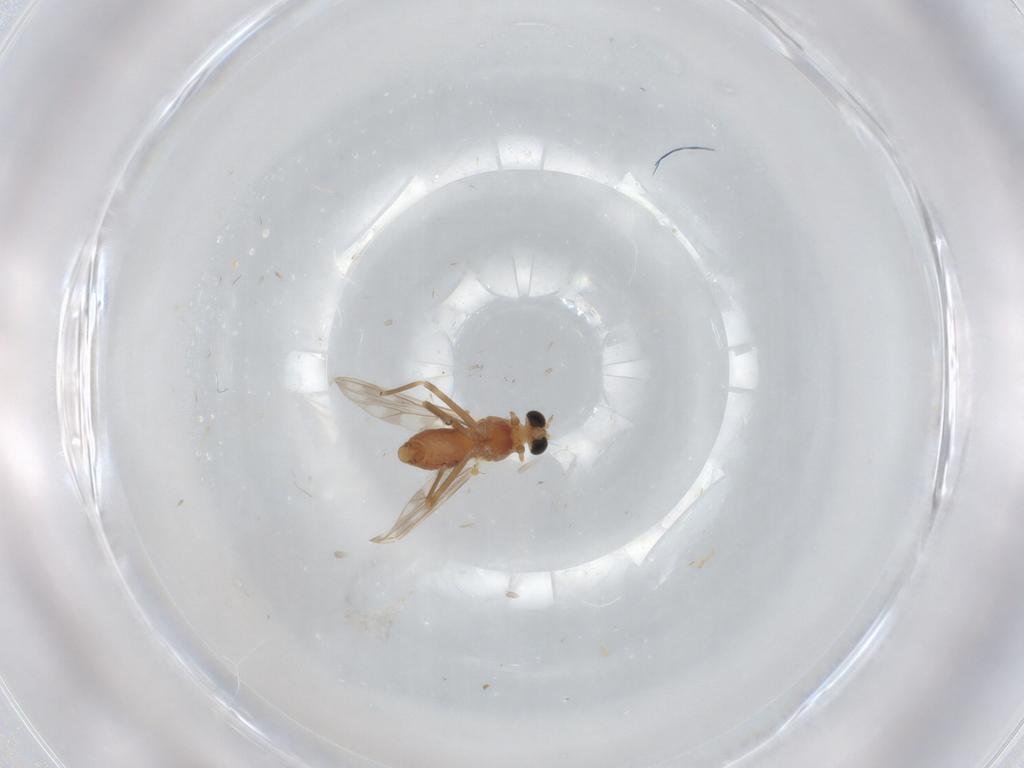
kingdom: Animalia
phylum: Arthropoda
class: Insecta
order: Diptera
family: Chironomidae
